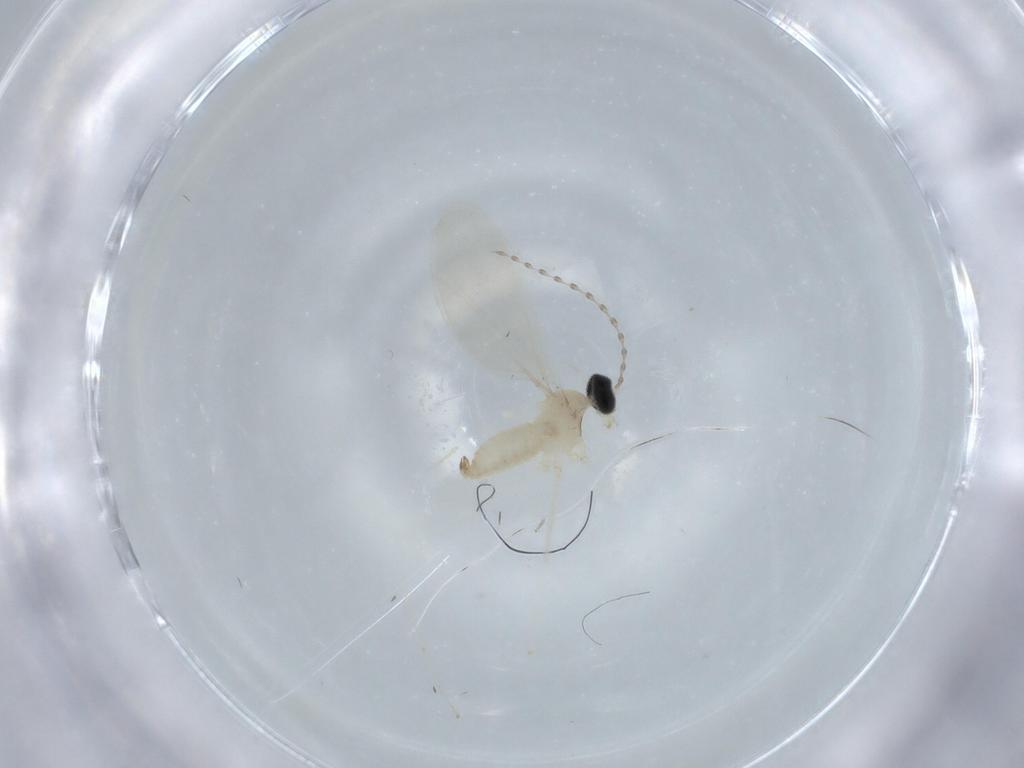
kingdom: Animalia
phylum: Arthropoda
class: Insecta
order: Diptera
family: Cecidomyiidae
